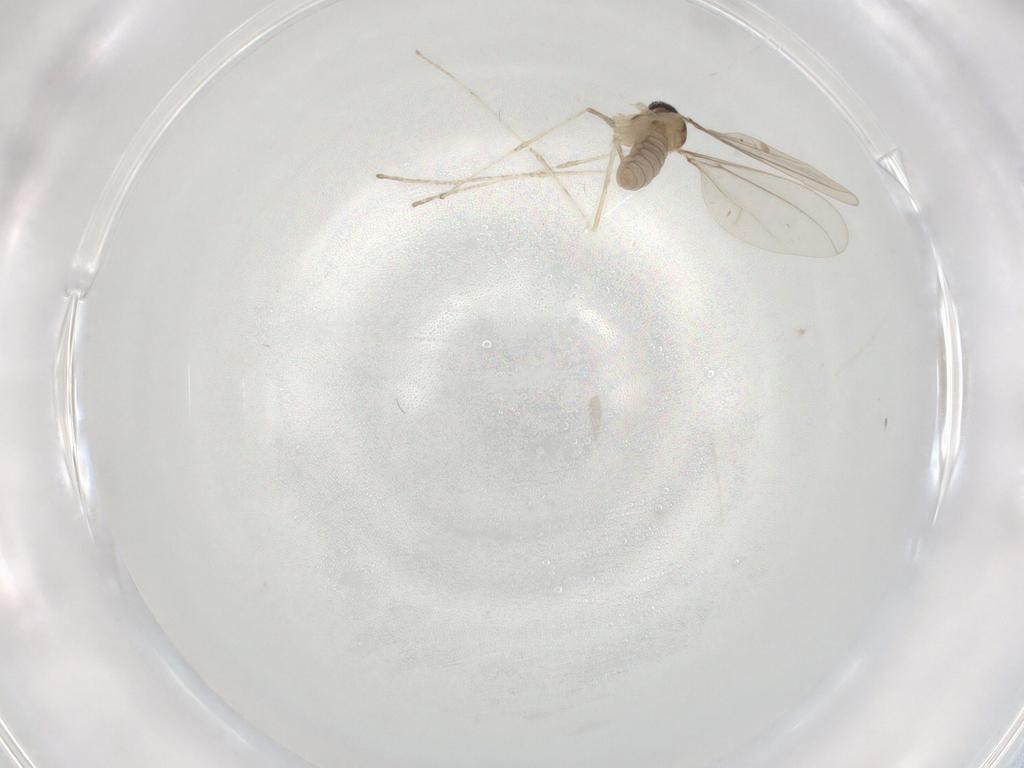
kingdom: Animalia
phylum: Arthropoda
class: Insecta
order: Diptera
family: Cecidomyiidae
